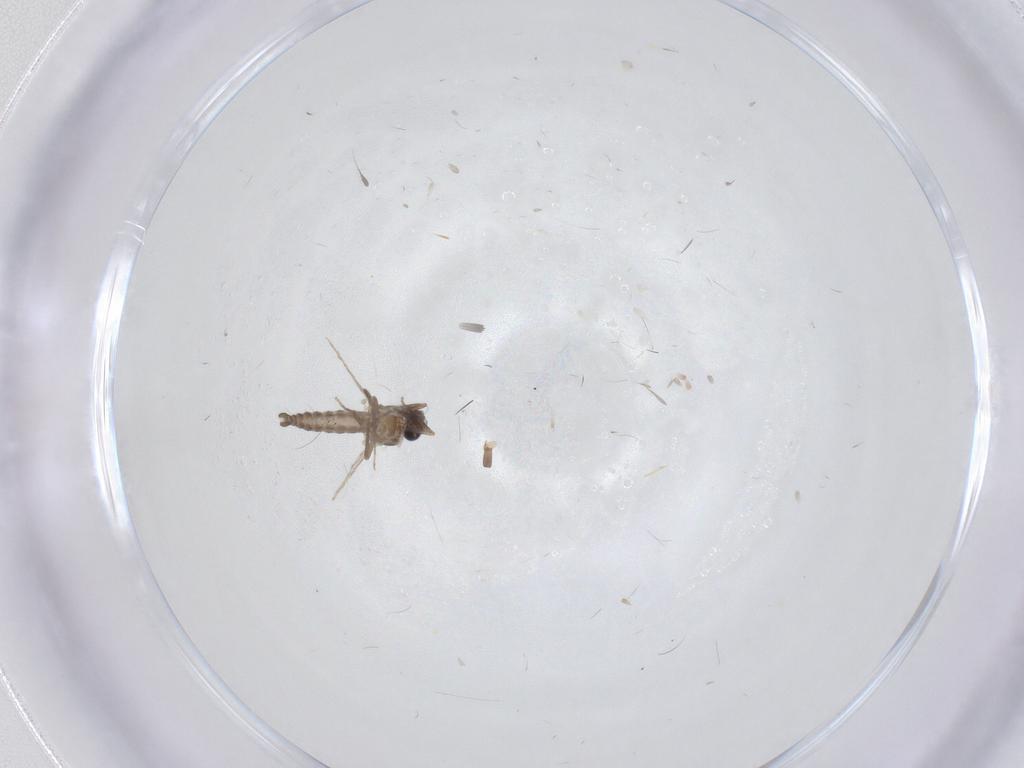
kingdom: Animalia
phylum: Arthropoda
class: Insecta
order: Diptera
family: Ceratopogonidae
